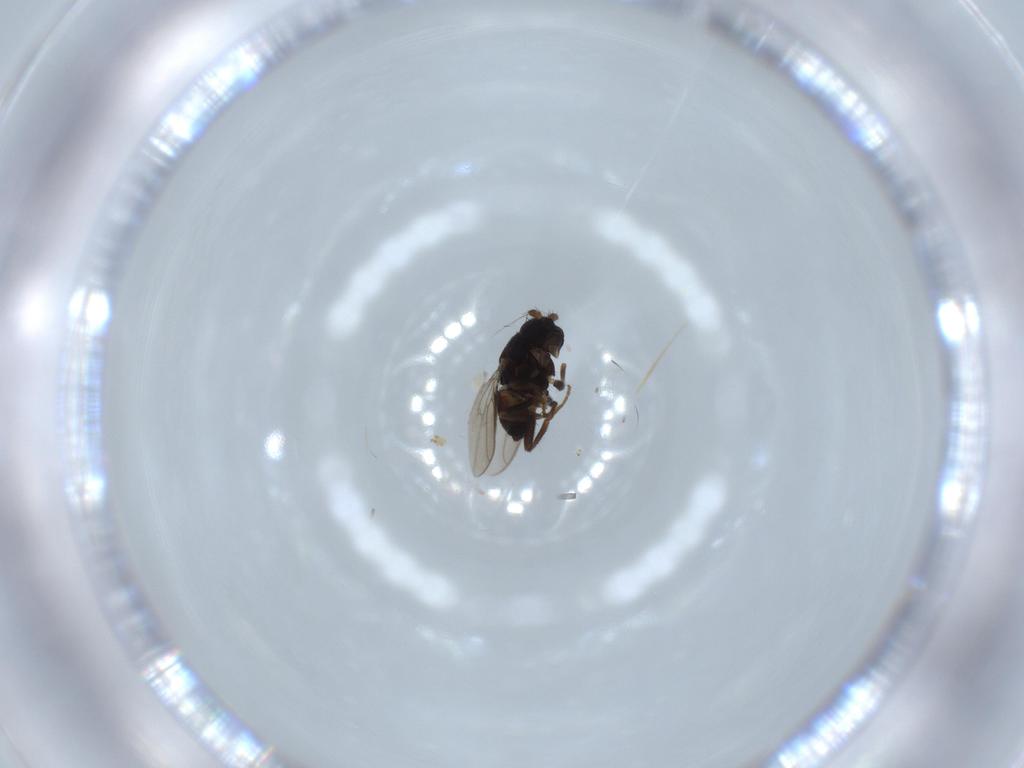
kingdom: Animalia
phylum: Arthropoda
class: Insecta
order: Diptera
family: Sphaeroceridae
